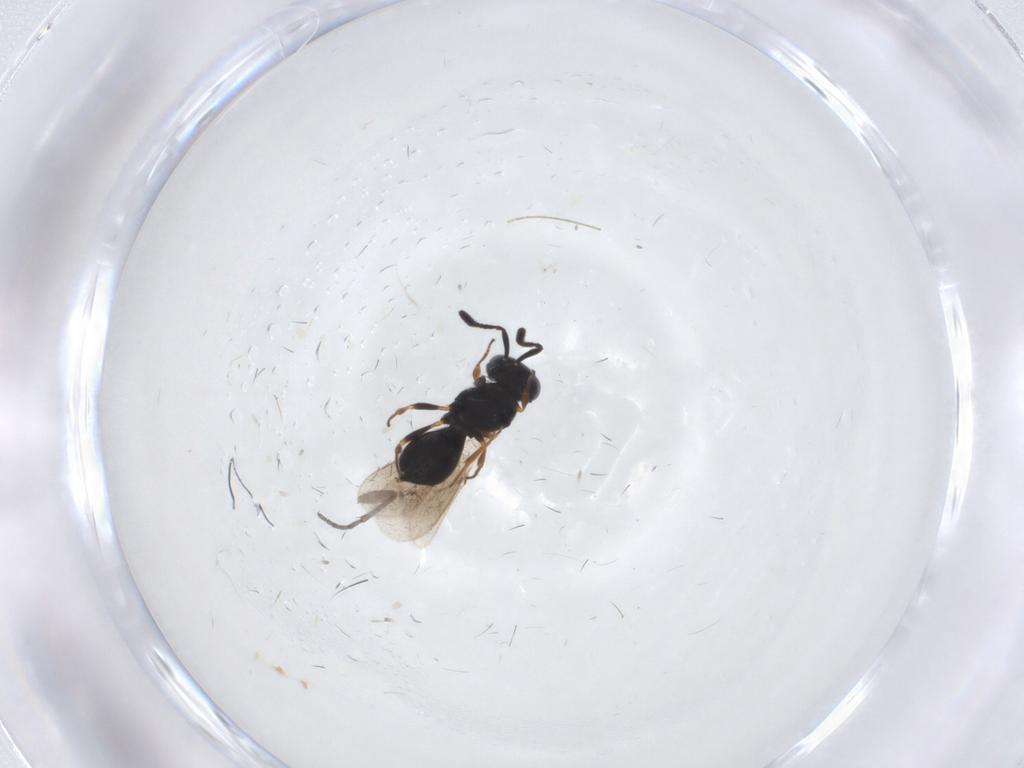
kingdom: Animalia
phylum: Arthropoda
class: Insecta
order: Hymenoptera
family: Scelionidae
